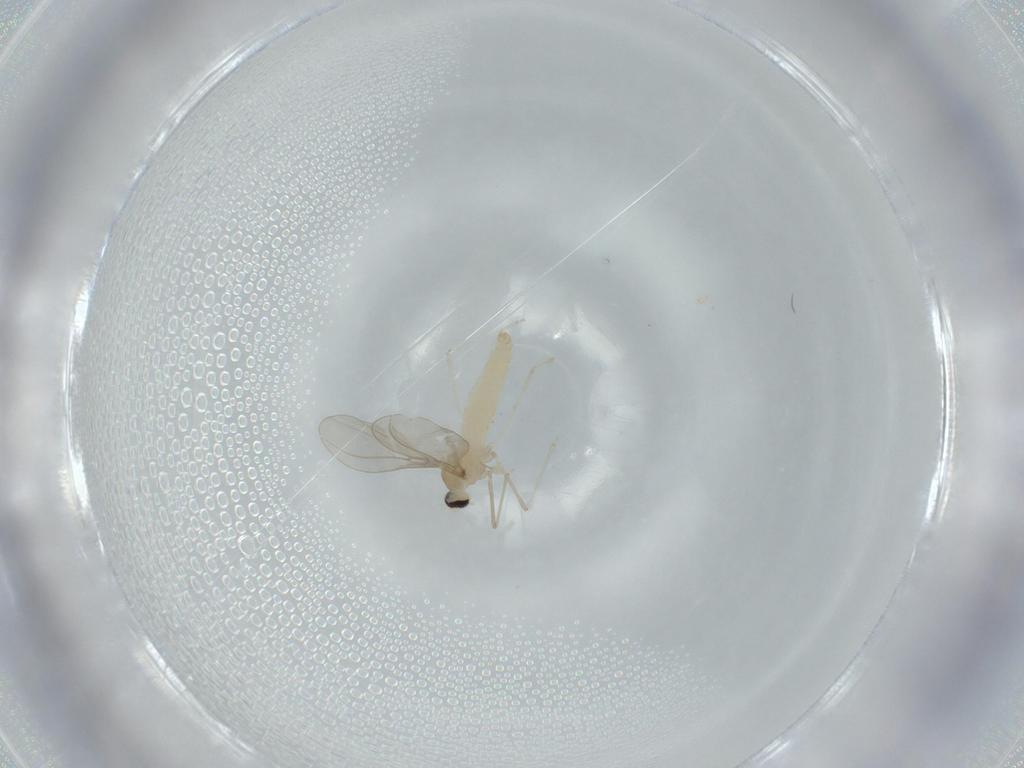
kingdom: Animalia
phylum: Arthropoda
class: Insecta
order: Diptera
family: Cecidomyiidae
